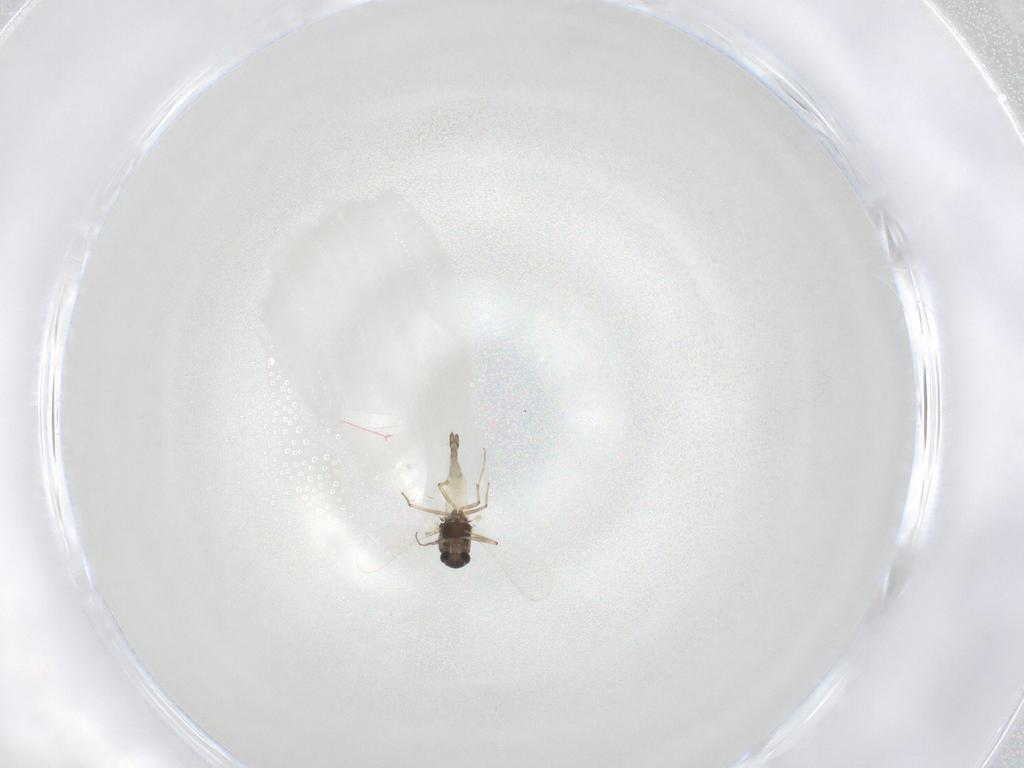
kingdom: Animalia
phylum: Arthropoda
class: Insecta
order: Diptera
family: Chironomidae
